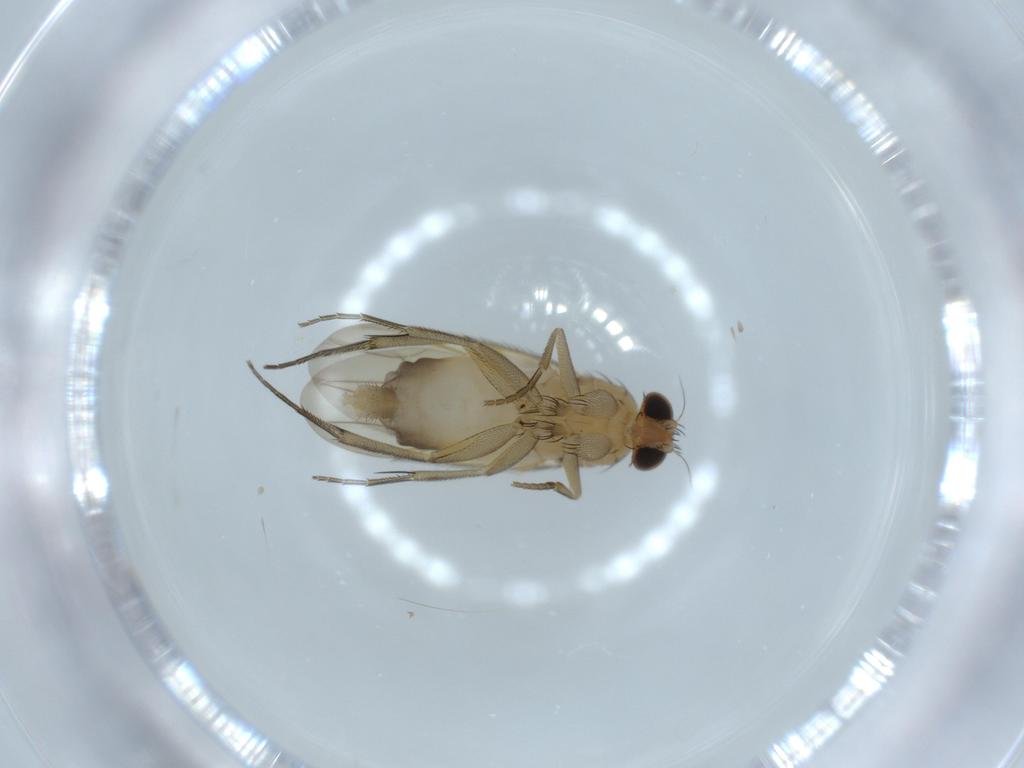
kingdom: Animalia
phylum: Arthropoda
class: Insecta
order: Diptera
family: Phoridae
